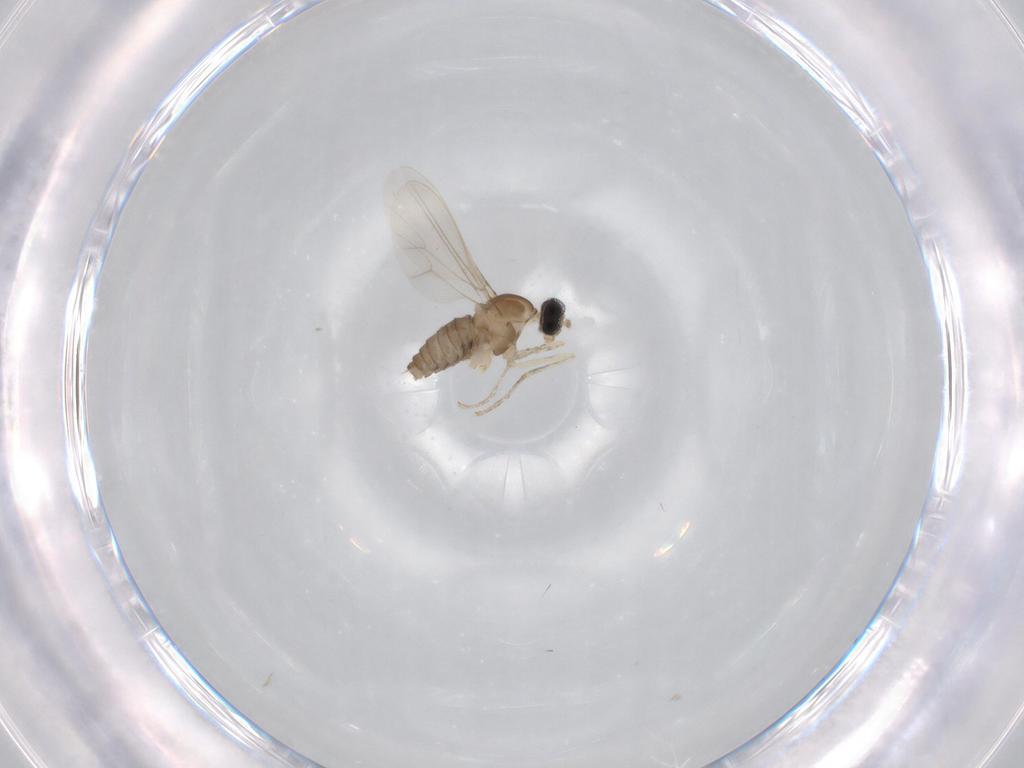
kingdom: Animalia
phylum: Arthropoda
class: Insecta
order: Diptera
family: Cecidomyiidae
